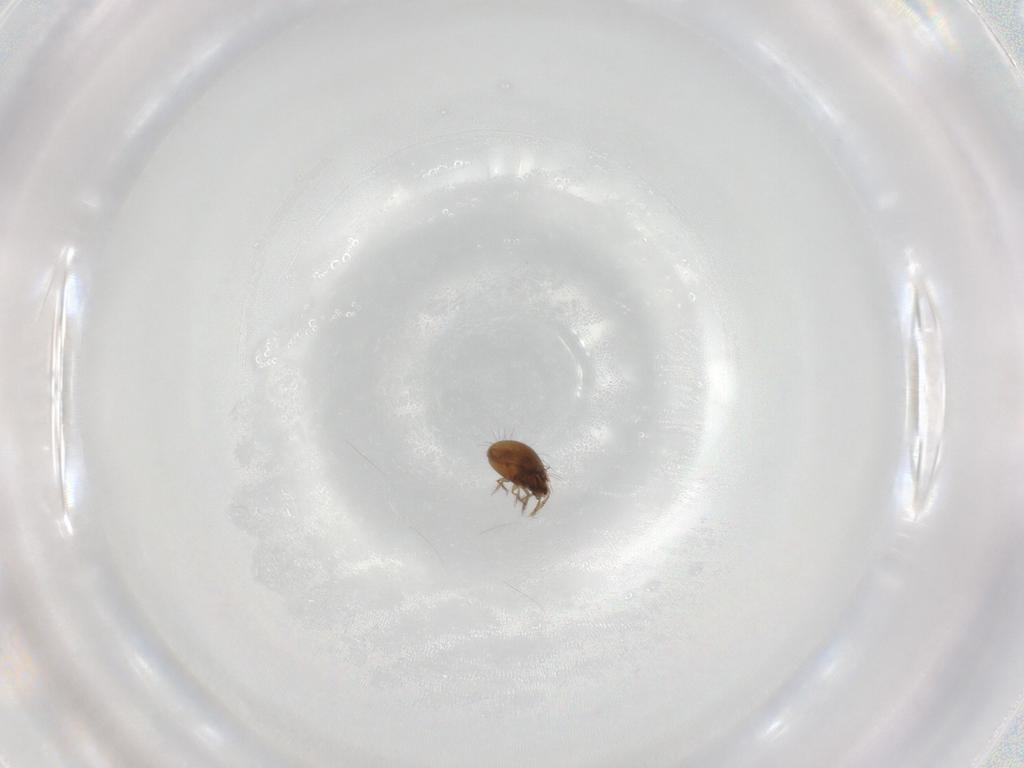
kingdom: Animalia
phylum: Arthropoda
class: Arachnida
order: Sarcoptiformes
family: Humerobatidae
